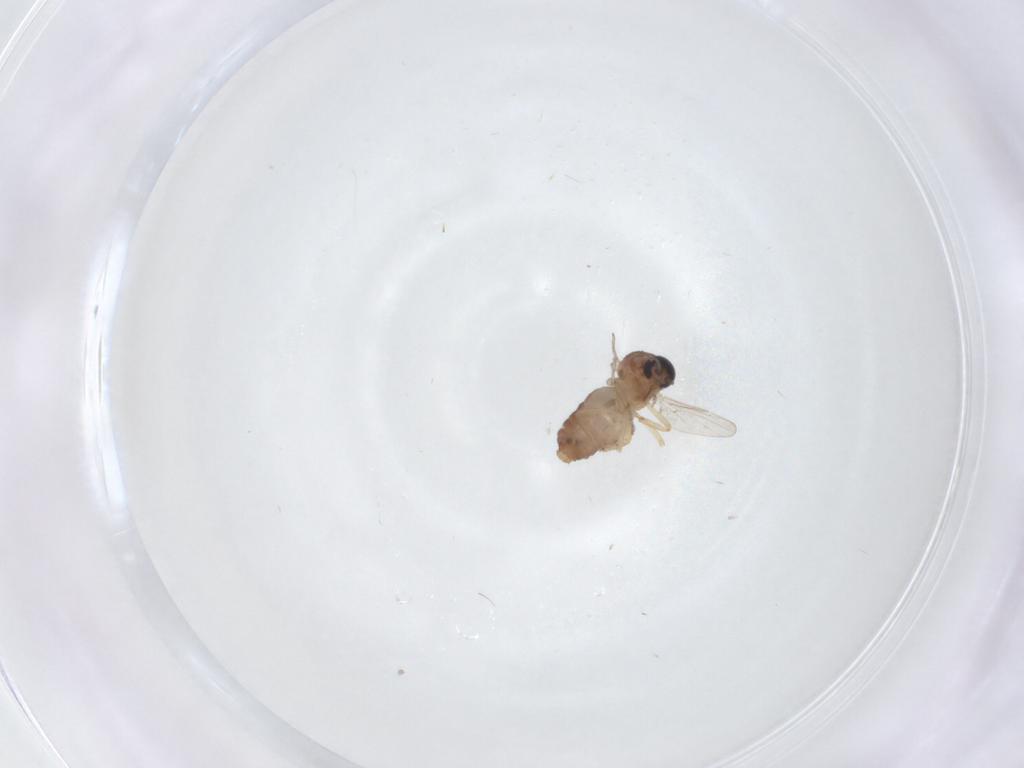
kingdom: Animalia
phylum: Arthropoda
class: Insecta
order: Diptera
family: Ceratopogonidae
